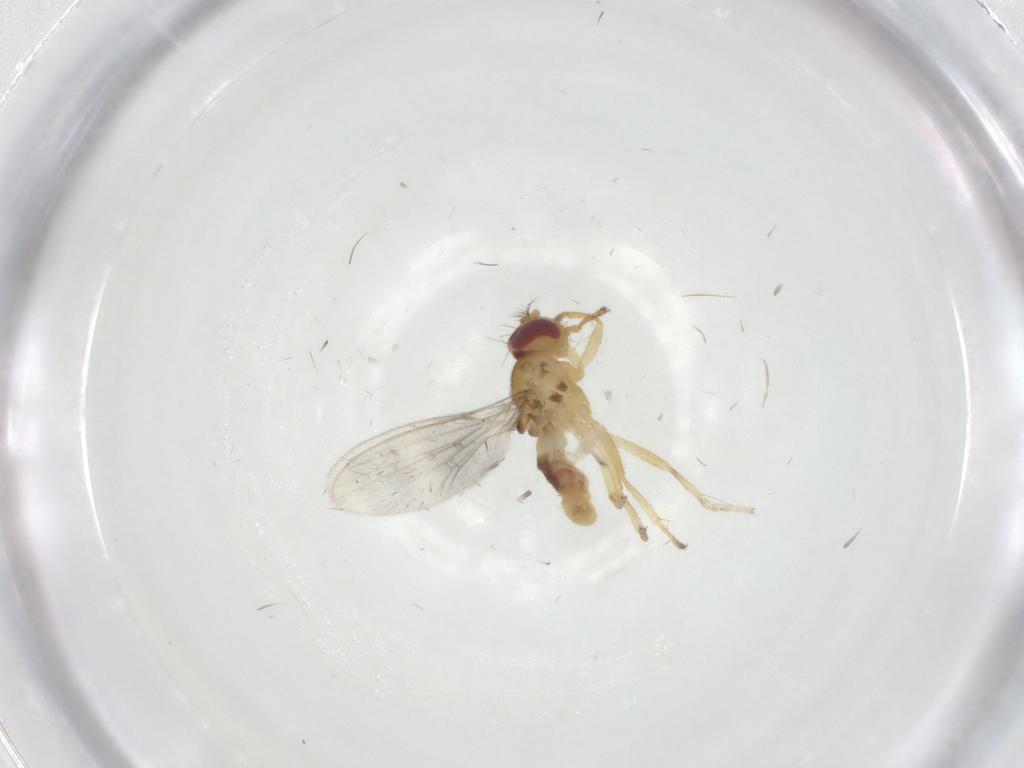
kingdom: Animalia
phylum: Arthropoda
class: Insecta
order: Diptera
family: Periscelididae
